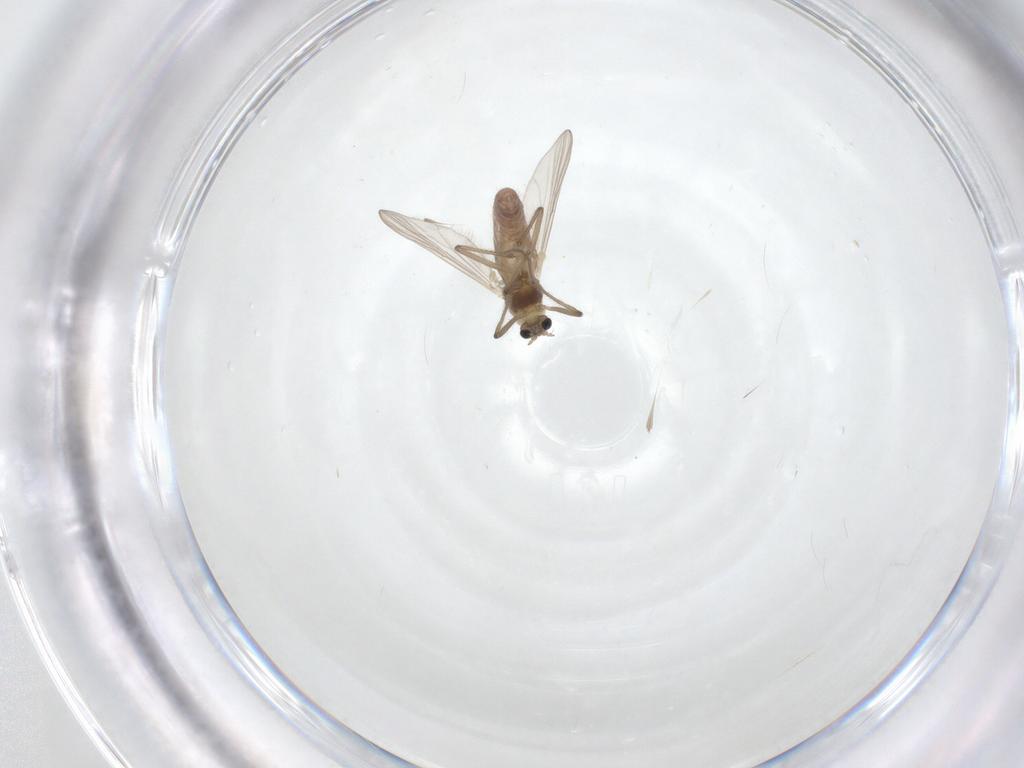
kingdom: Animalia
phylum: Arthropoda
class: Insecta
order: Diptera
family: Chironomidae
